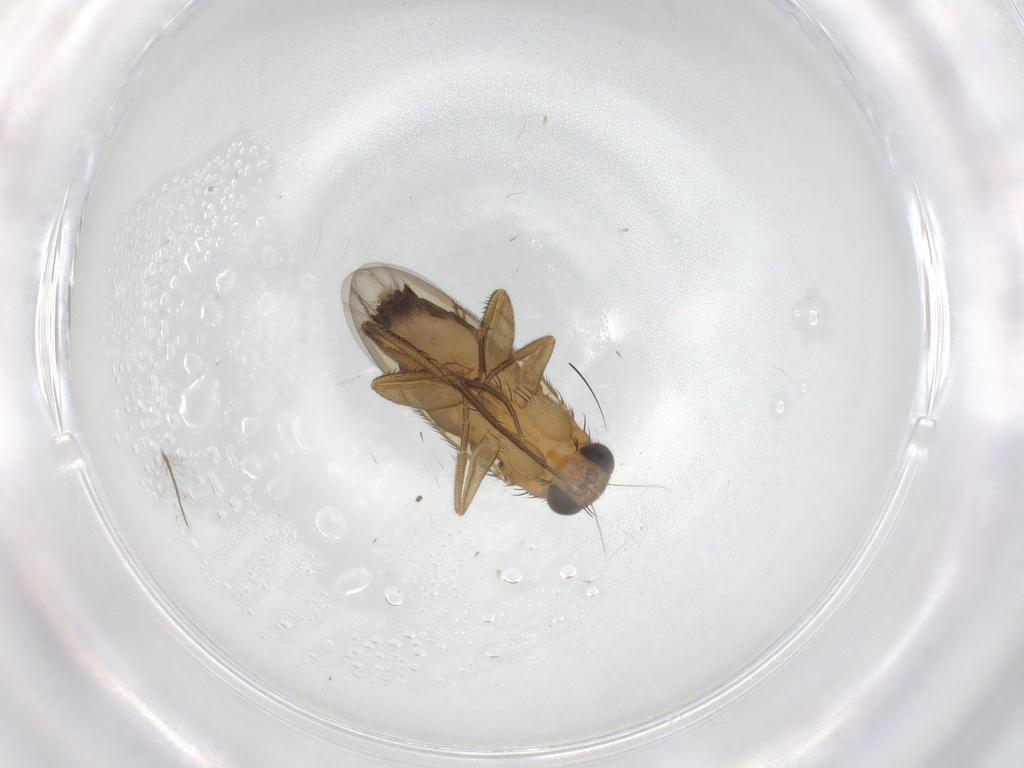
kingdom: Animalia
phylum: Arthropoda
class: Insecta
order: Diptera
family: Phoridae
